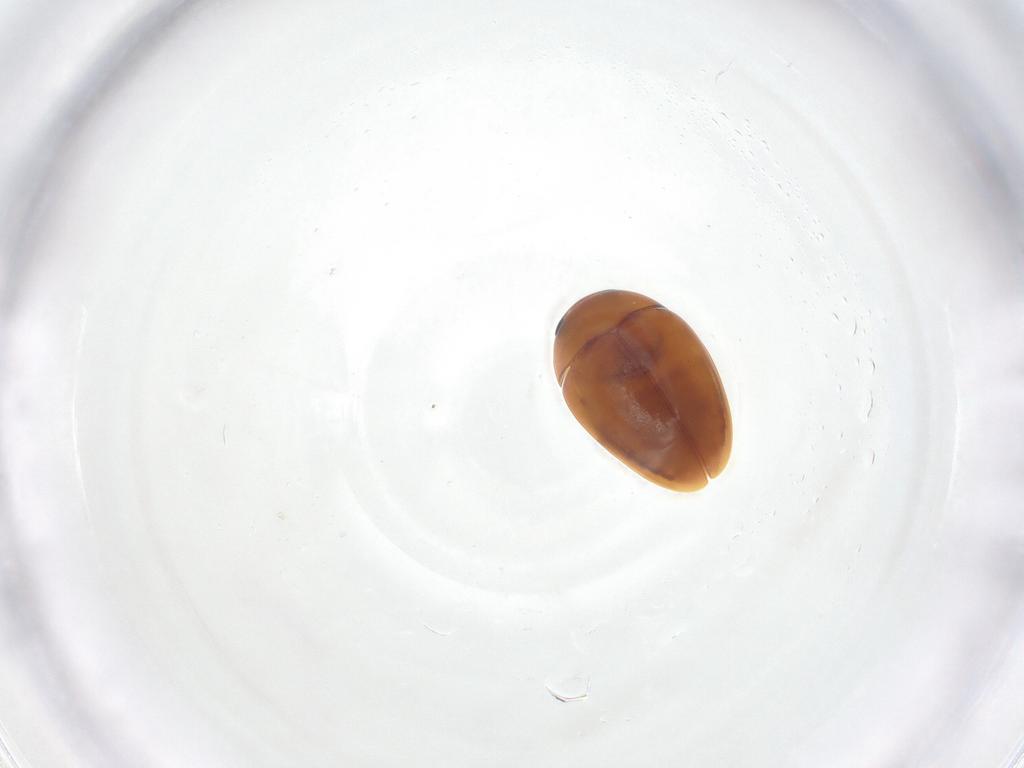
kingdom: Animalia
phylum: Arthropoda
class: Insecta
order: Coleoptera
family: Phalacridae
